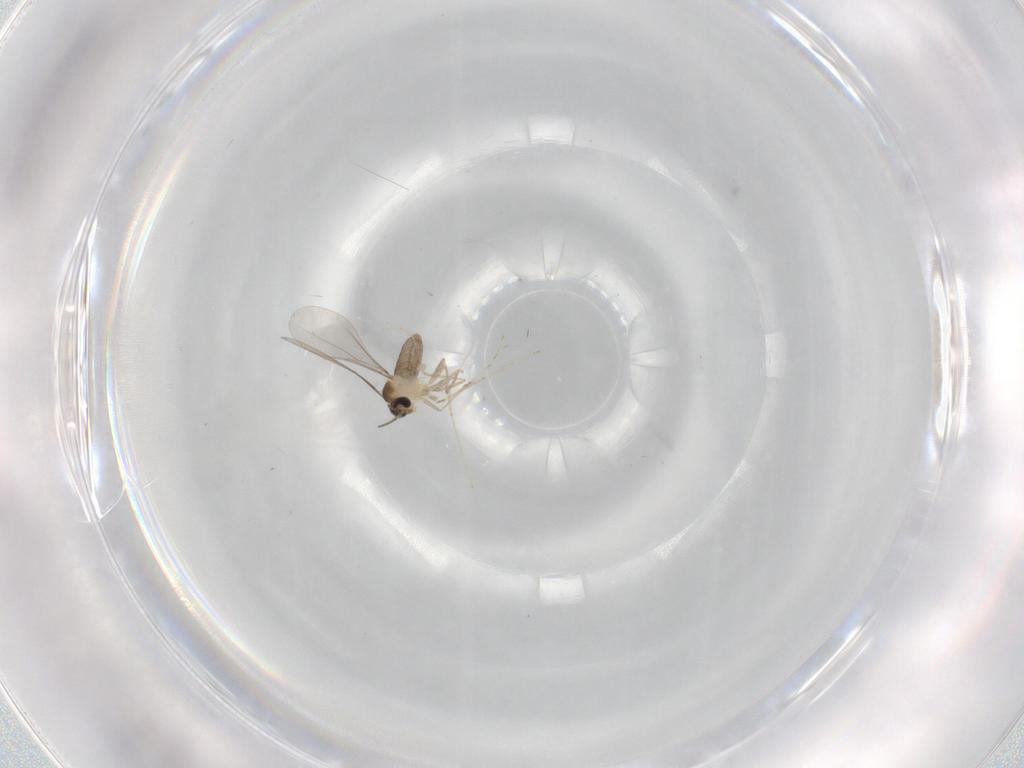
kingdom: Animalia
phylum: Arthropoda
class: Insecta
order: Diptera
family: Cecidomyiidae
